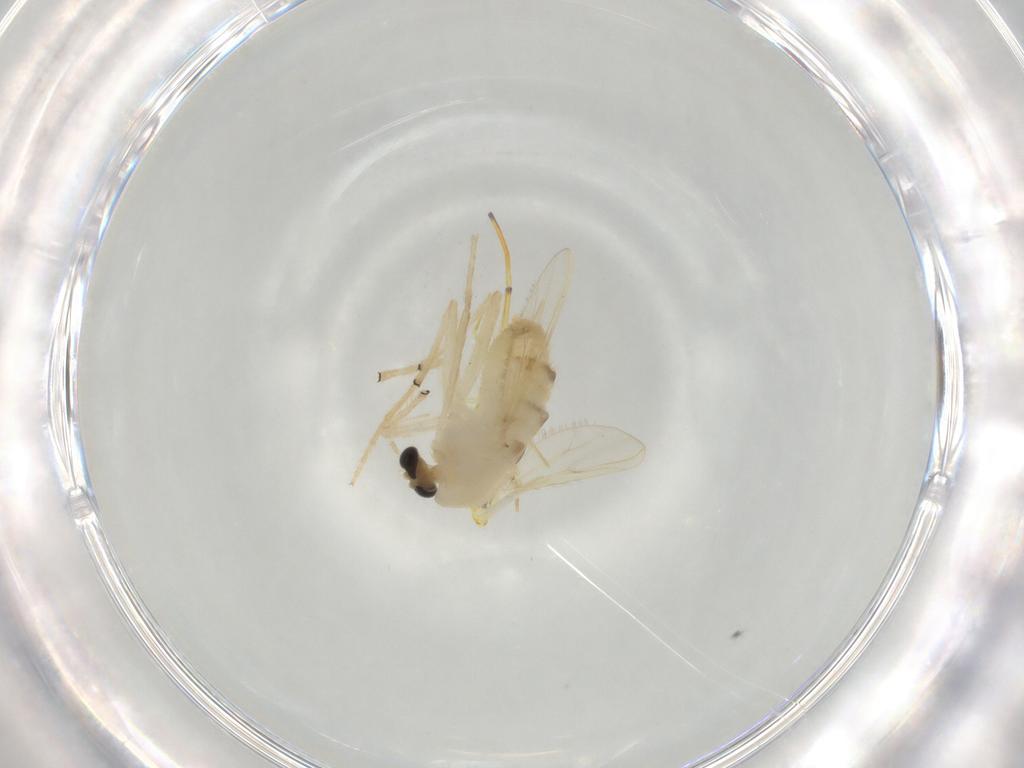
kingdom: Animalia
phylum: Arthropoda
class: Insecta
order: Diptera
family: Chironomidae
